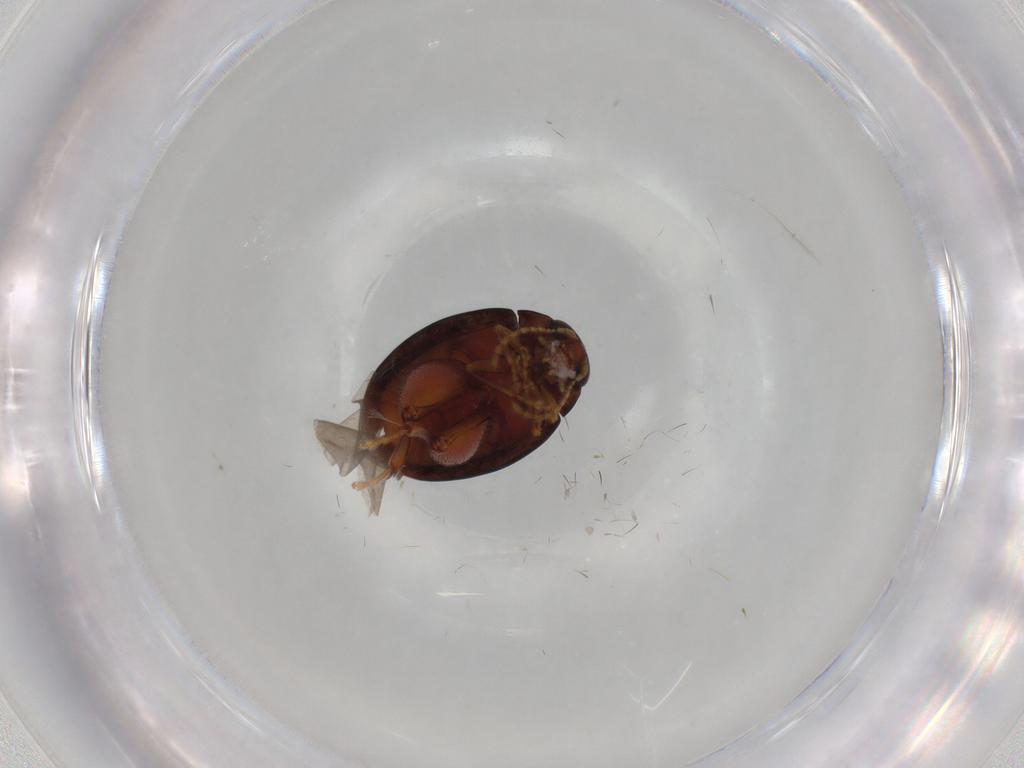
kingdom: Animalia
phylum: Arthropoda
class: Insecta
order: Coleoptera
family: Chrysomelidae
